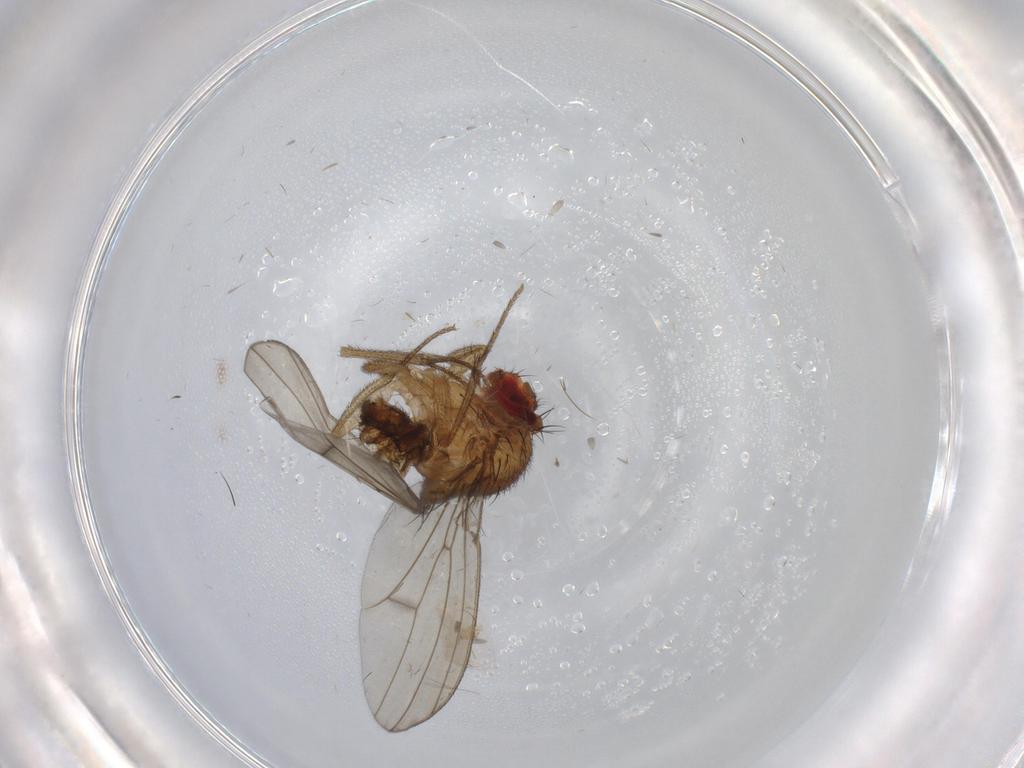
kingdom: Animalia
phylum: Arthropoda
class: Insecta
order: Diptera
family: Drosophilidae
